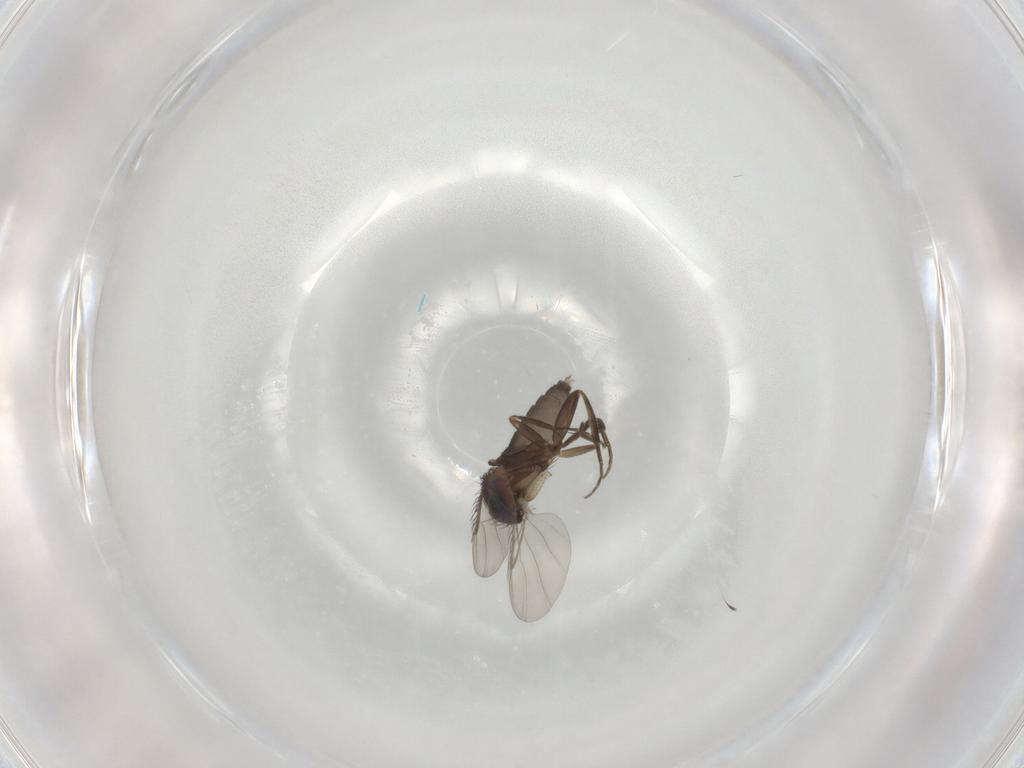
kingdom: Animalia
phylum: Arthropoda
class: Insecta
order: Diptera
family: Phoridae
